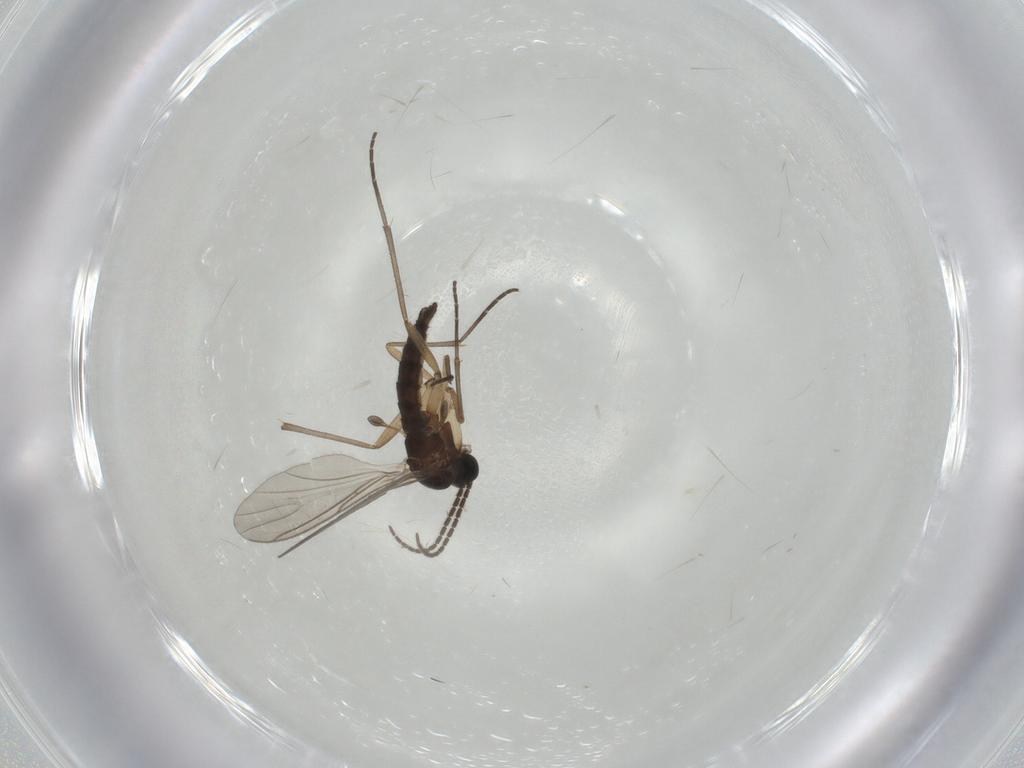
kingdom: Animalia
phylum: Arthropoda
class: Insecta
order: Diptera
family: Sciaridae
